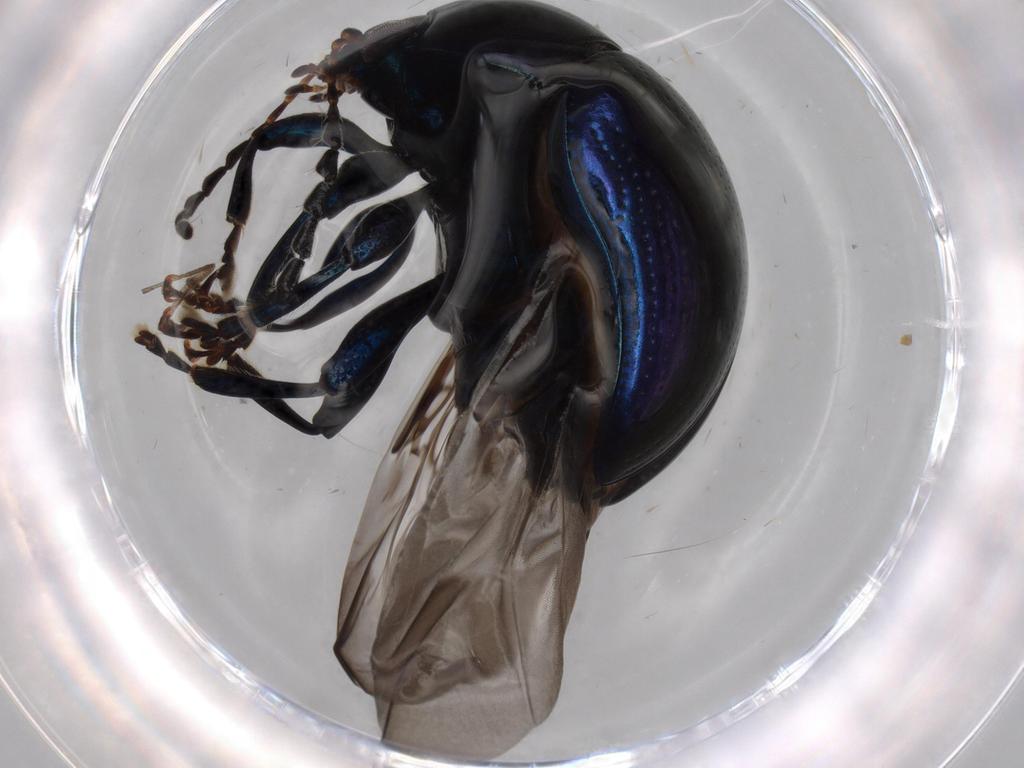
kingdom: Animalia
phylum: Arthropoda
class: Insecta
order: Coleoptera
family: Chrysomelidae
